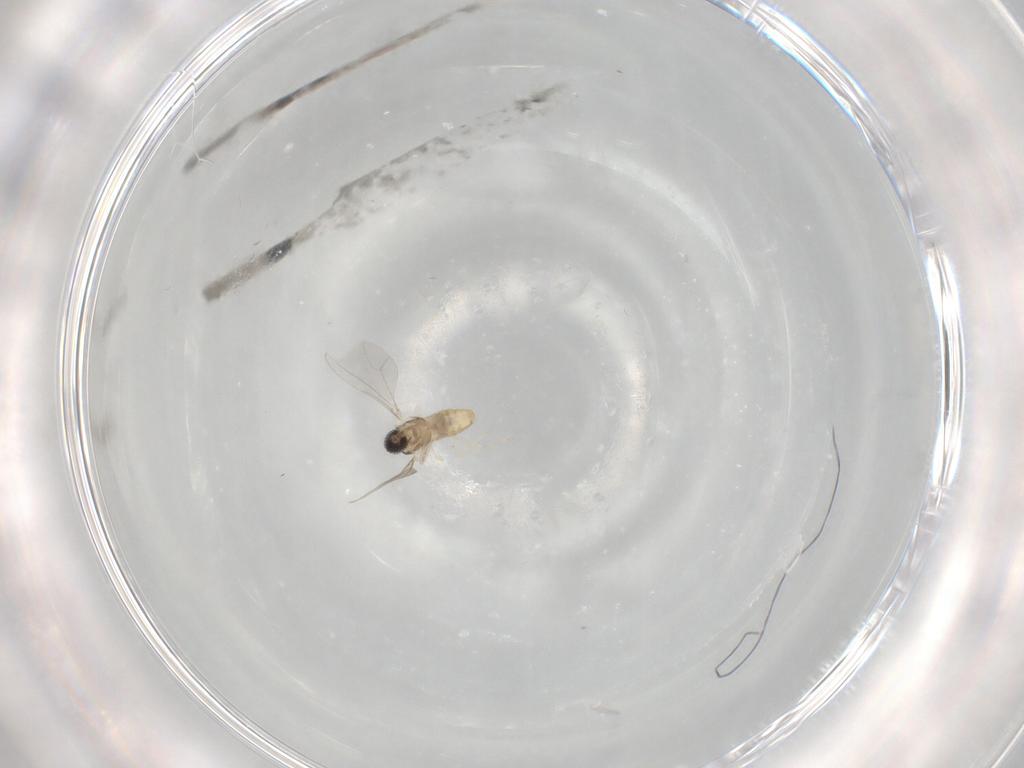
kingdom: Animalia
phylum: Arthropoda
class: Insecta
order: Diptera
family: Cecidomyiidae
